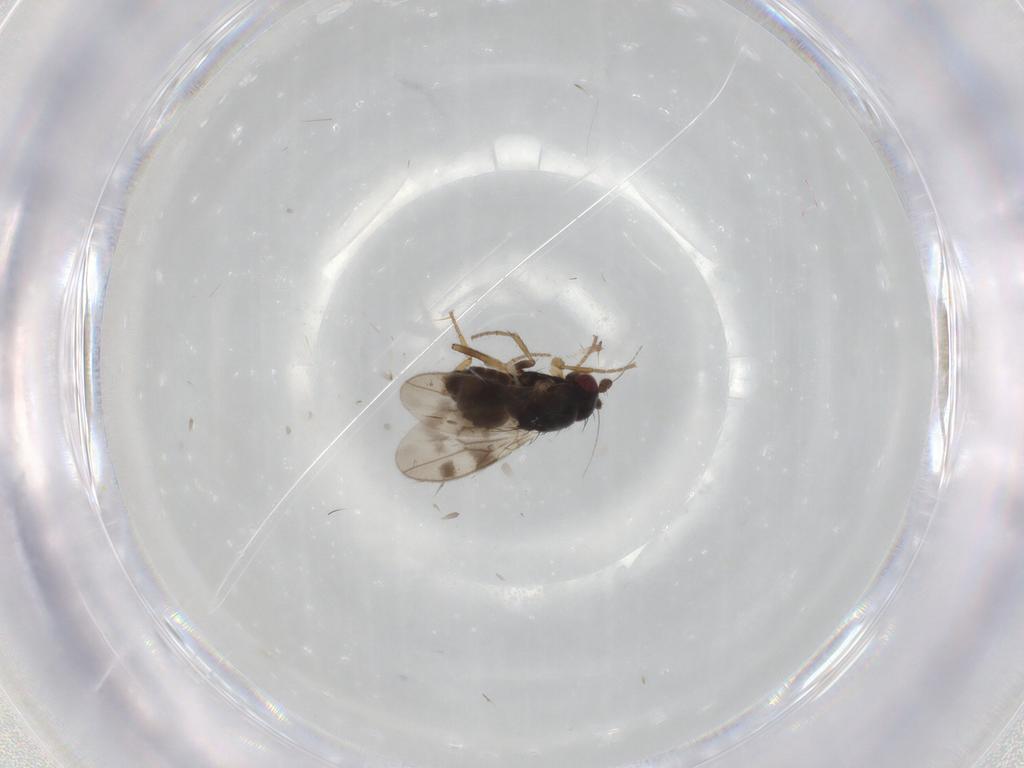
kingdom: Animalia
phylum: Arthropoda
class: Insecta
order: Diptera
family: Sphaeroceridae
